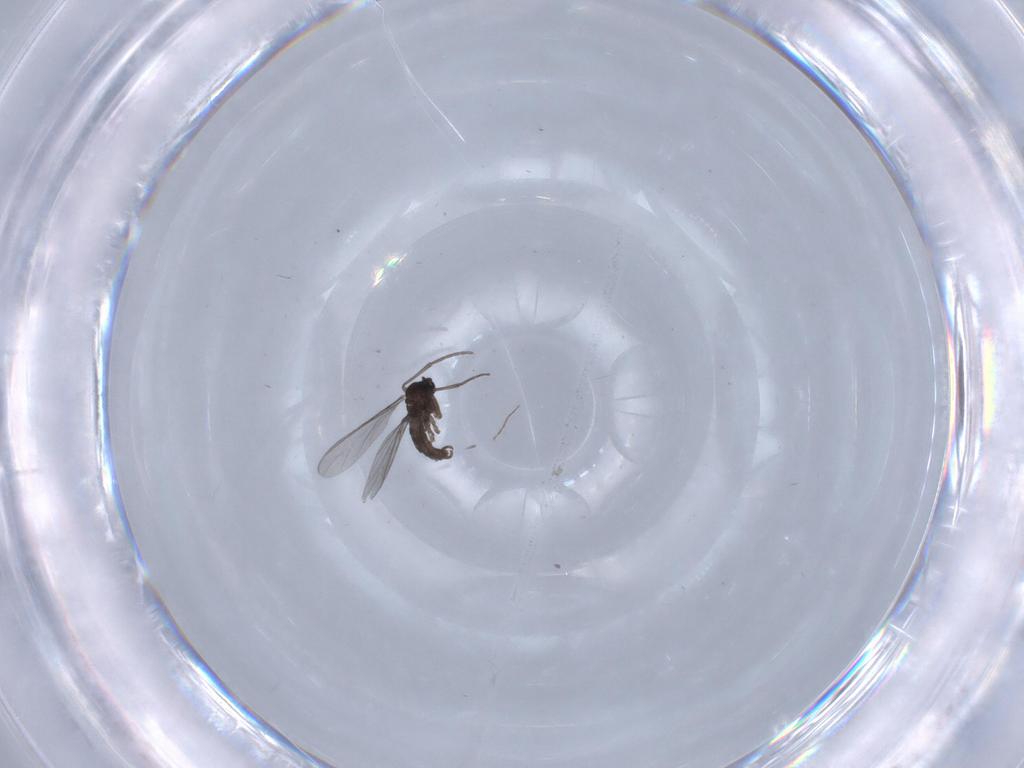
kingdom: Animalia
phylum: Arthropoda
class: Insecta
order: Diptera
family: Sciaridae
